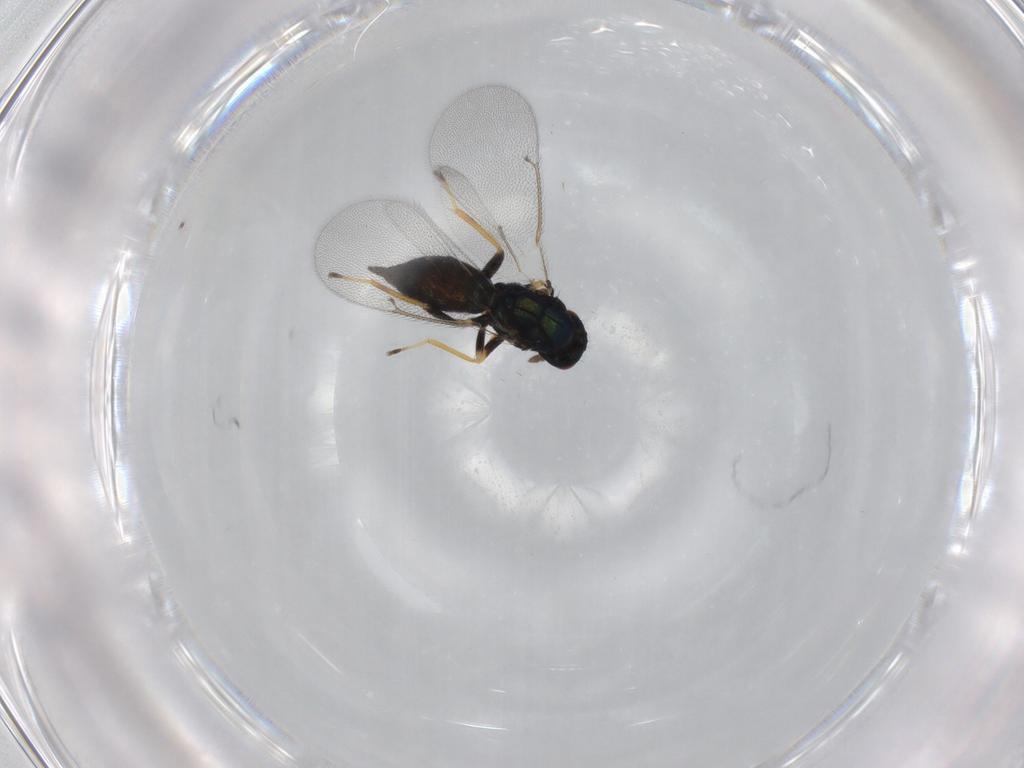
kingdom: Animalia
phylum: Arthropoda
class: Insecta
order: Hymenoptera
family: Eulophidae
